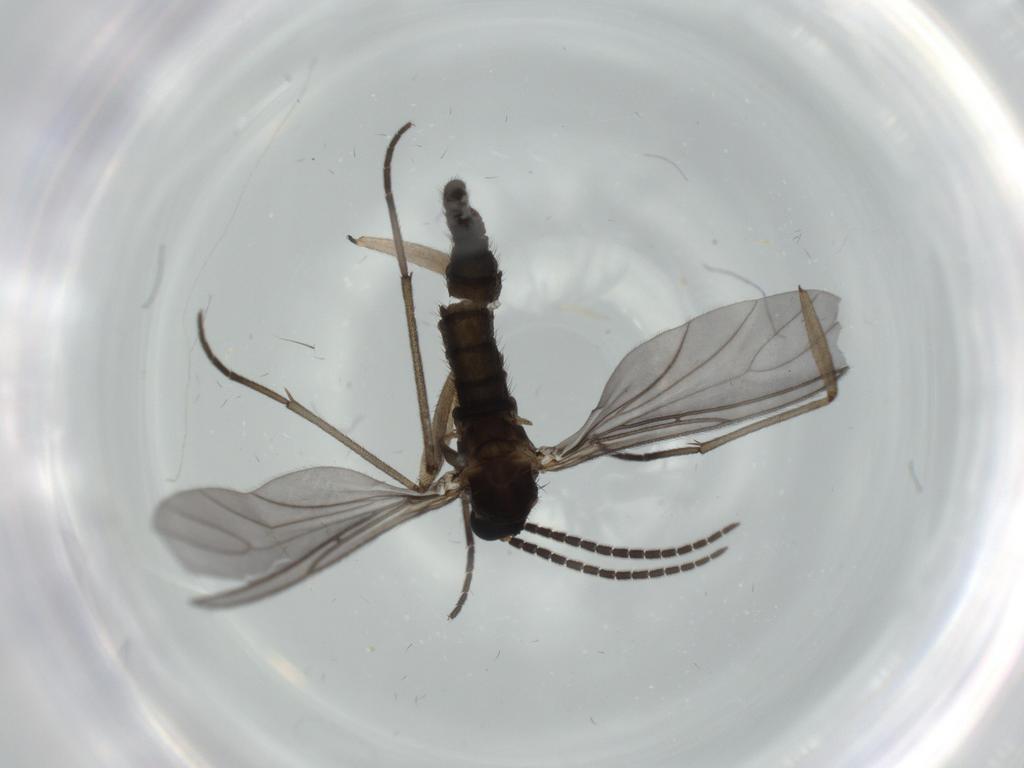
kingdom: Animalia
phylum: Arthropoda
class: Insecta
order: Diptera
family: Sciaridae
